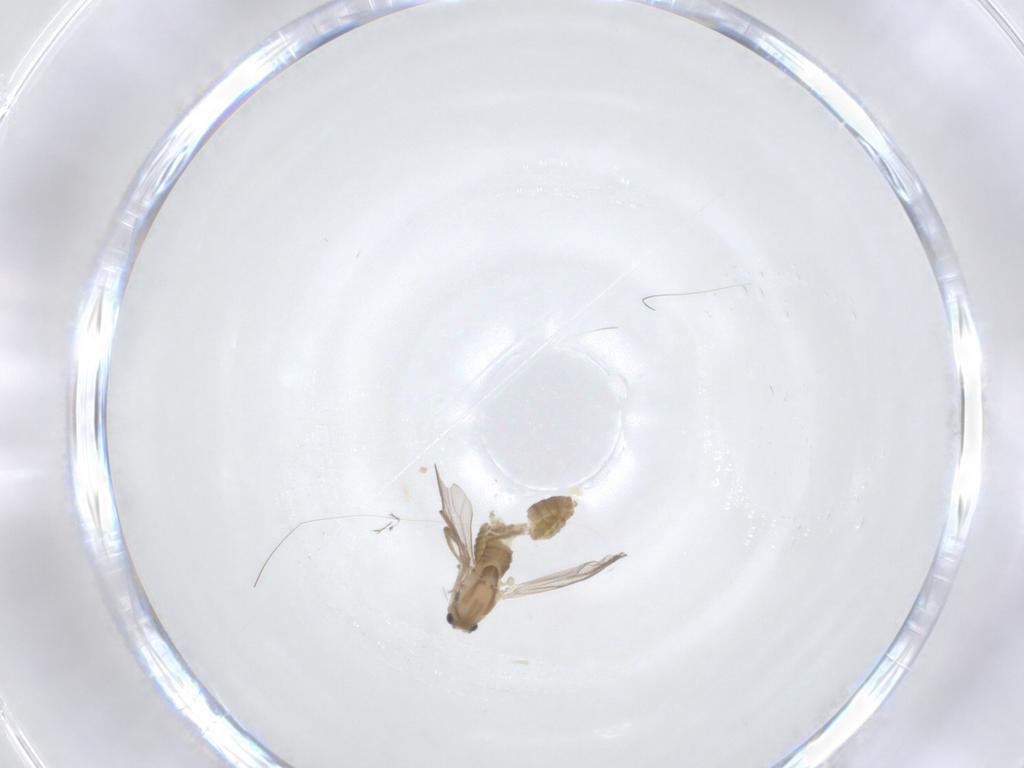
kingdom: Animalia
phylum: Arthropoda
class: Insecta
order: Diptera
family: Chironomidae
